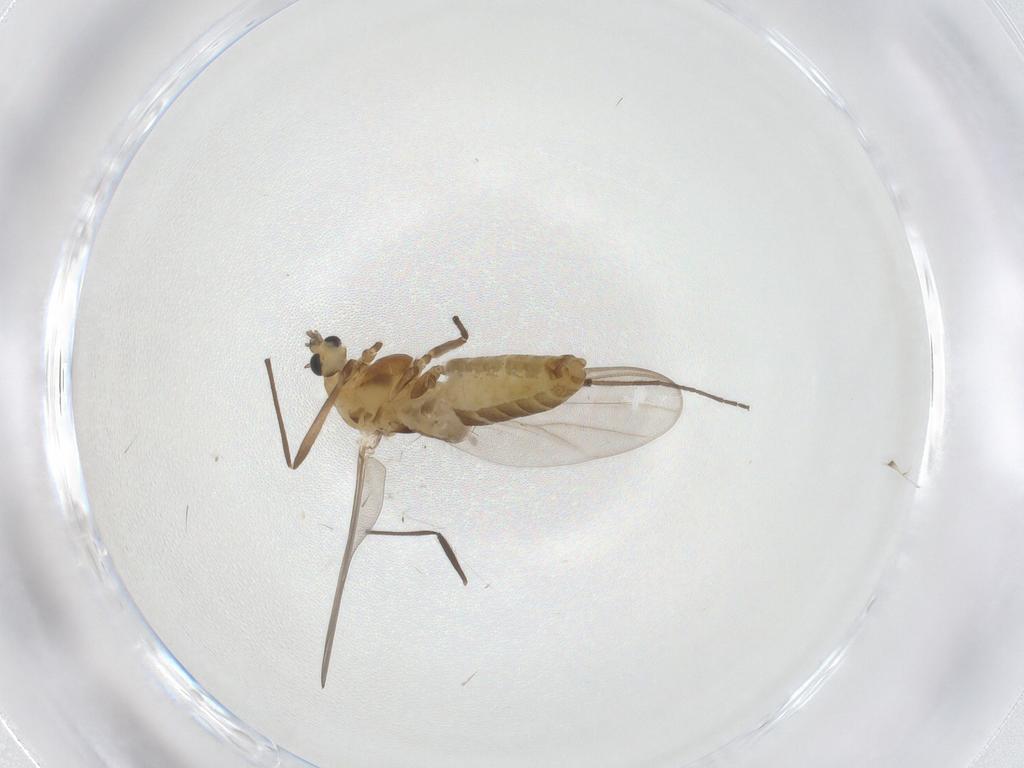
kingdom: Animalia
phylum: Arthropoda
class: Insecta
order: Diptera
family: Chironomidae
